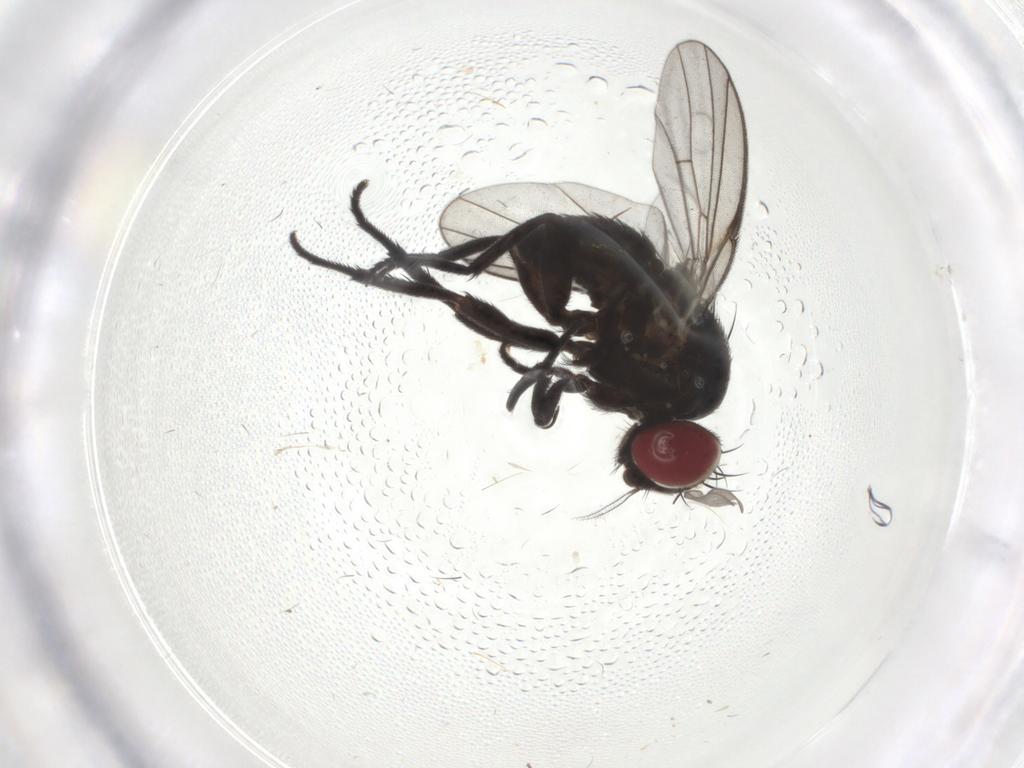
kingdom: Animalia
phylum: Arthropoda
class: Insecta
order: Diptera
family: Agromyzidae
